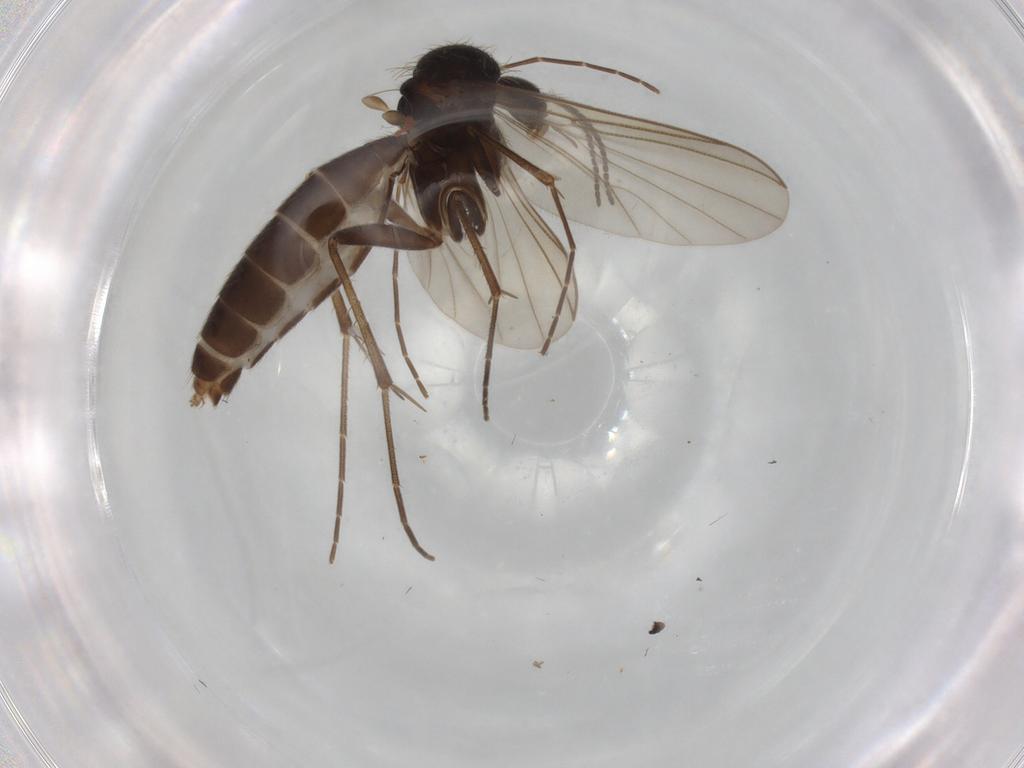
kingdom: Animalia
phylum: Arthropoda
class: Insecta
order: Diptera
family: Mycetophilidae
